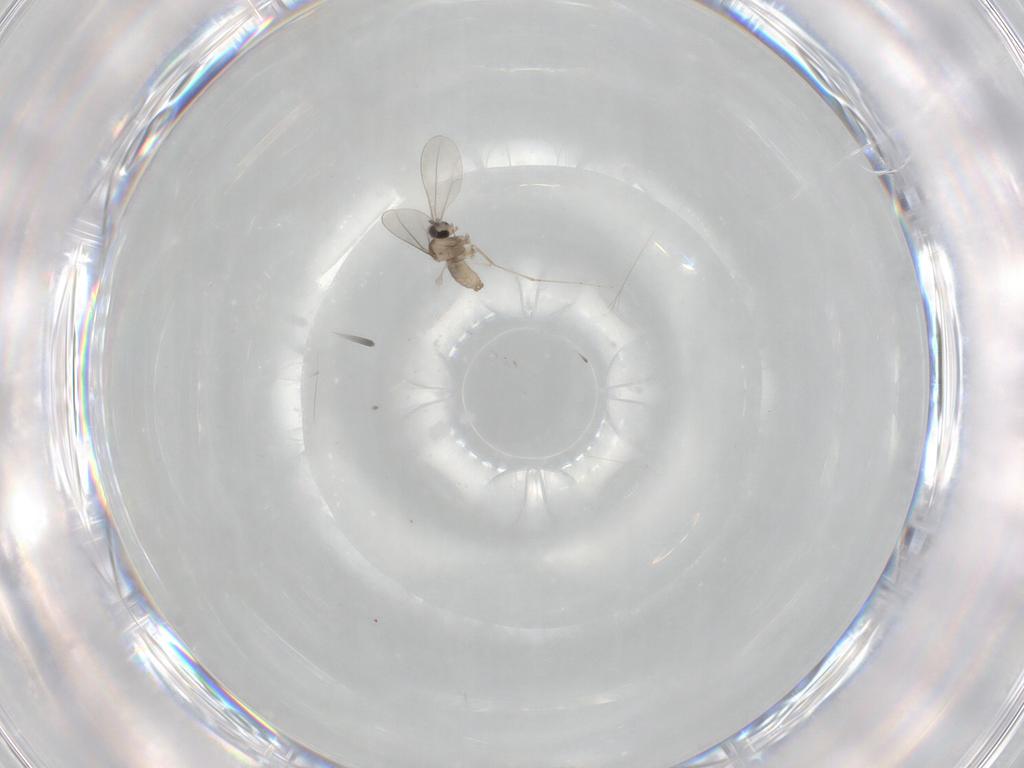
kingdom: Animalia
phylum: Arthropoda
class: Insecta
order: Diptera
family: Cecidomyiidae
